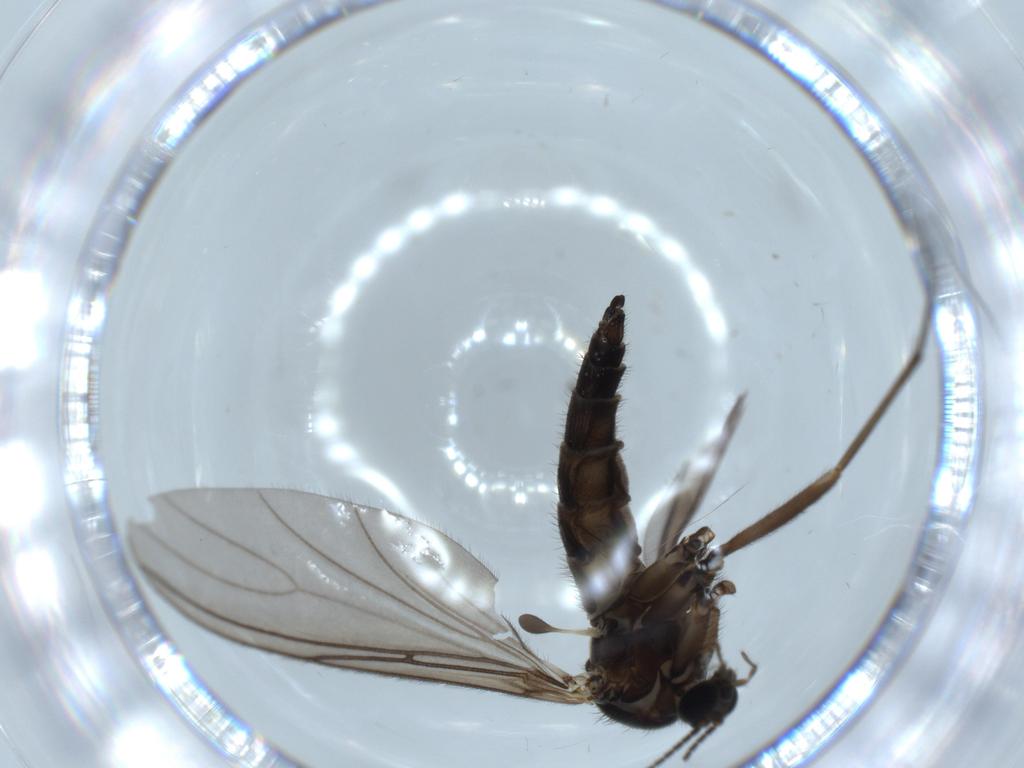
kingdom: Animalia
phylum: Arthropoda
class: Insecta
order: Diptera
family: Sciaridae
